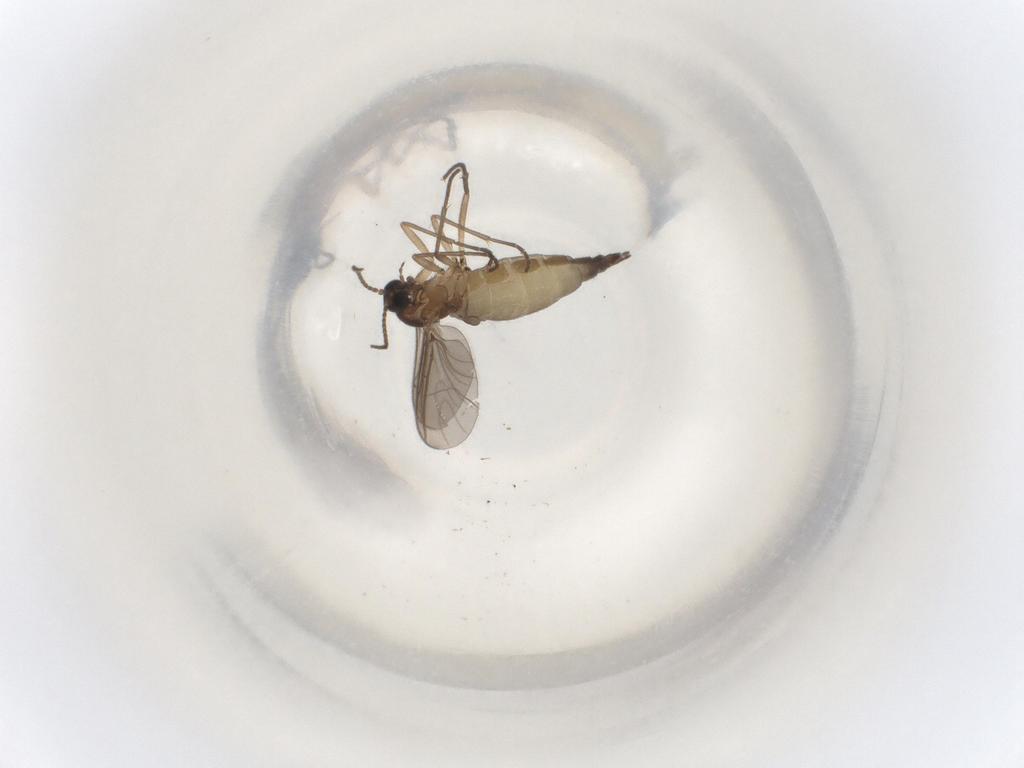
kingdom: Animalia
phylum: Arthropoda
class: Insecta
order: Diptera
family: Sciaridae
